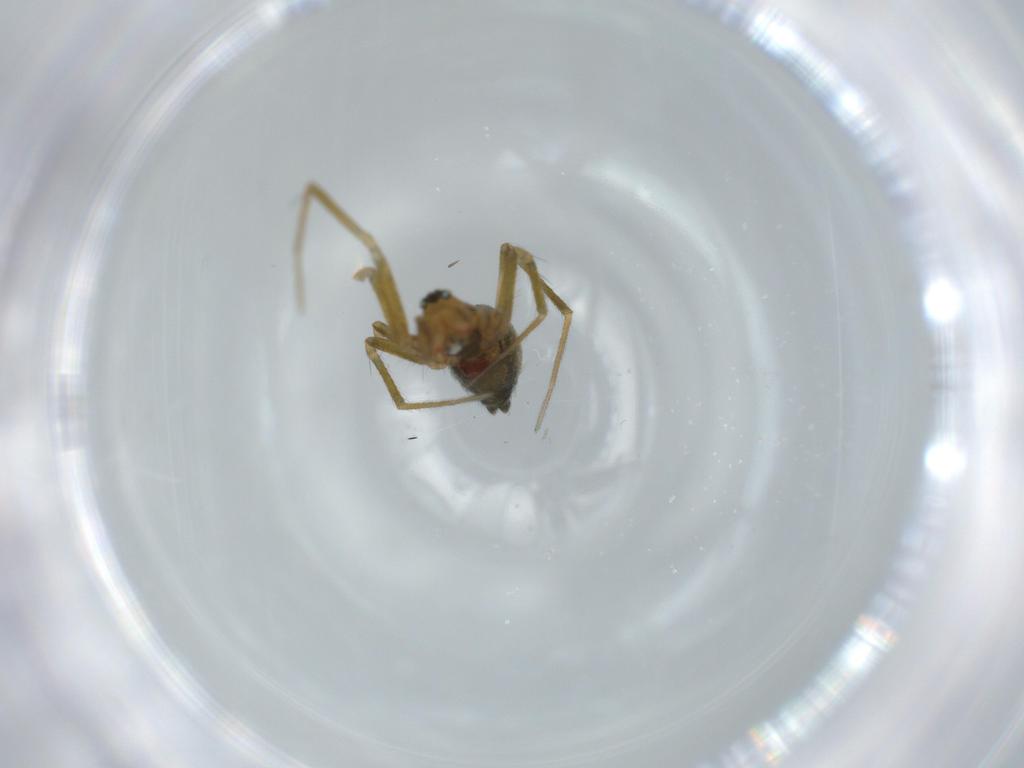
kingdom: Animalia
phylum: Arthropoda
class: Arachnida
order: Araneae
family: Linyphiidae
